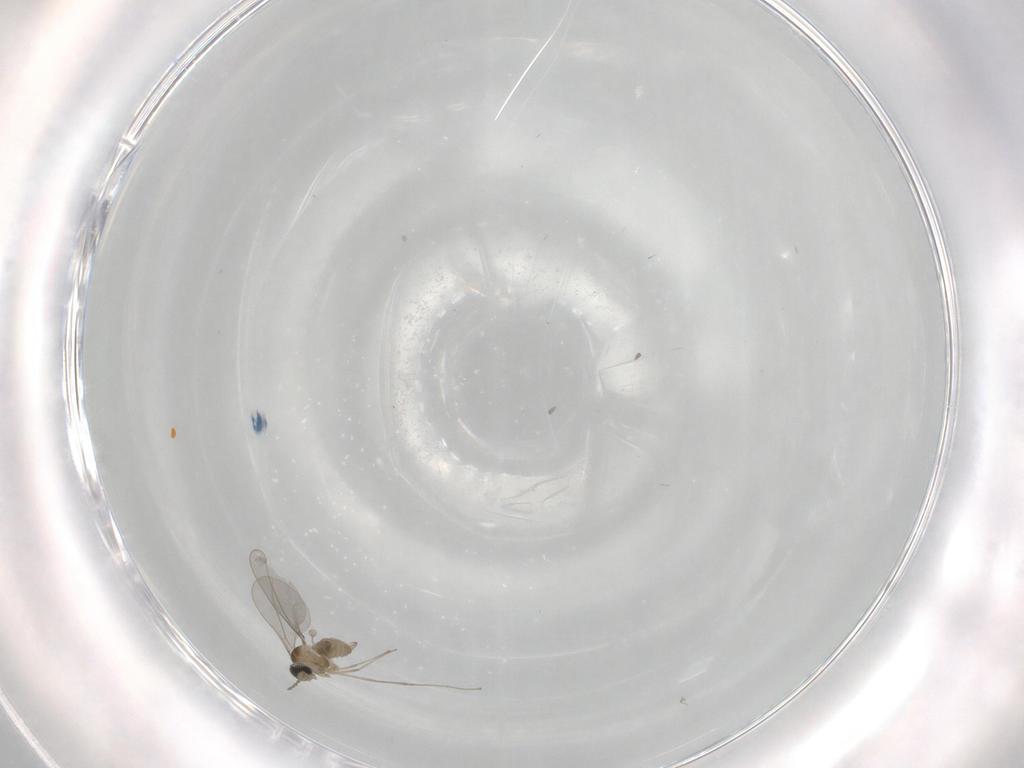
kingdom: Animalia
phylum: Arthropoda
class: Insecta
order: Diptera
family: Cecidomyiidae
